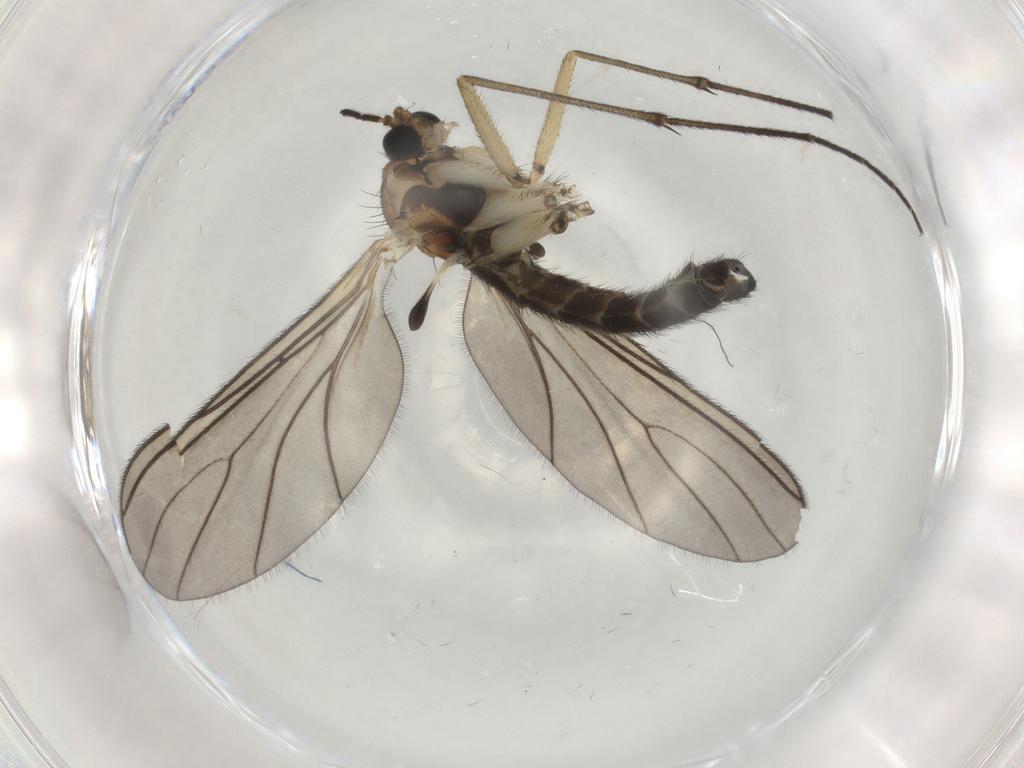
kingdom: Animalia
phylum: Arthropoda
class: Insecta
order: Diptera
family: Sciaridae
